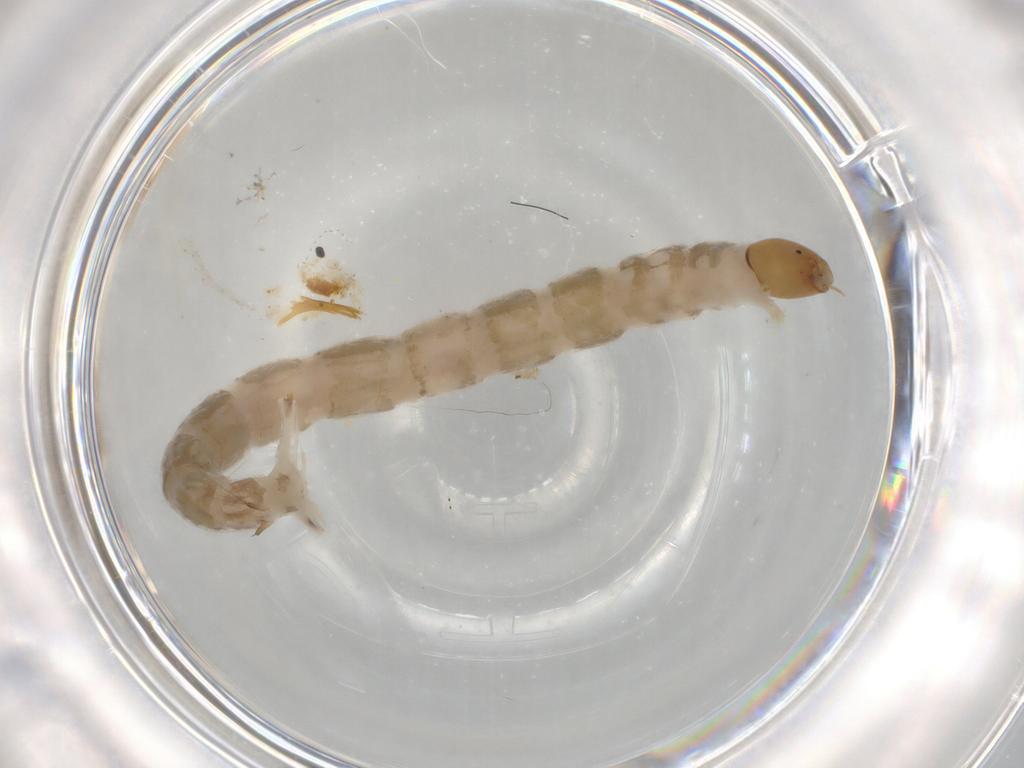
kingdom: Animalia
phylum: Arthropoda
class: Insecta
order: Diptera
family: Chironomidae
